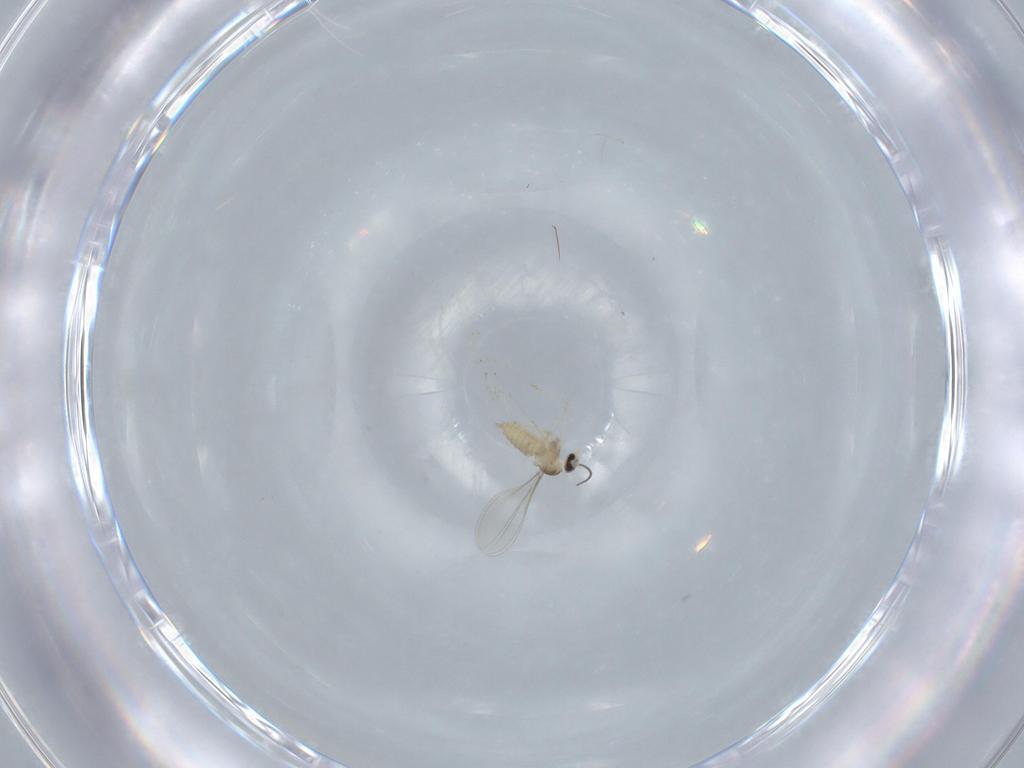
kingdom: Animalia
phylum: Arthropoda
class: Insecta
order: Diptera
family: Cecidomyiidae
